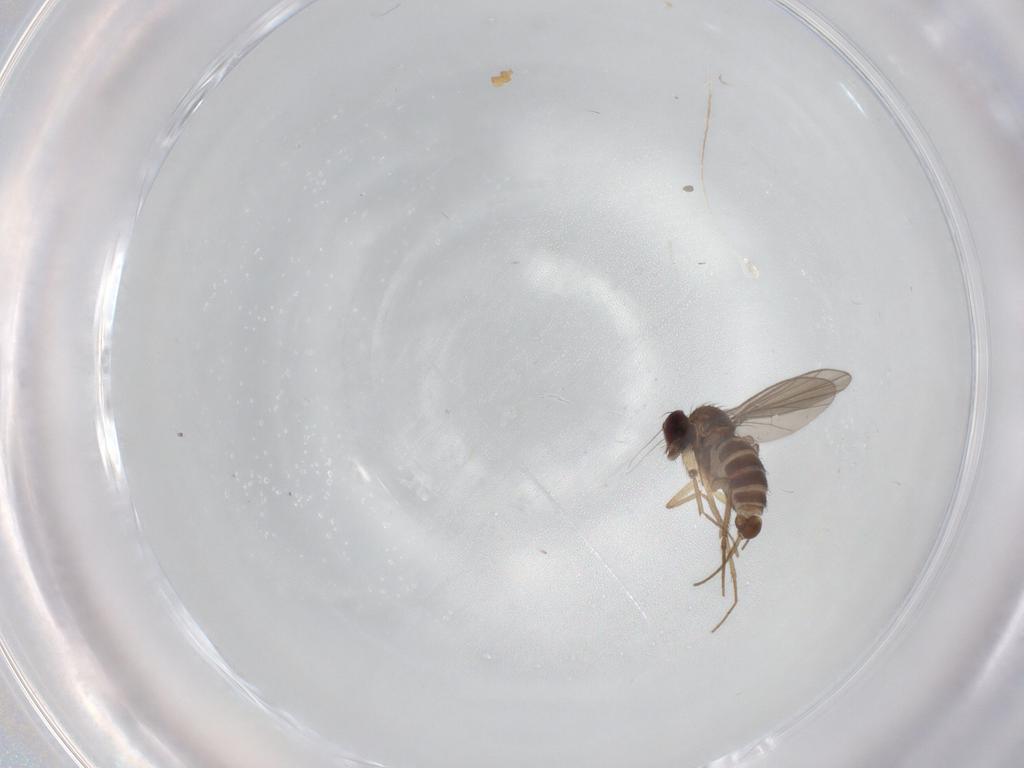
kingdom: Animalia
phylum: Arthropoda
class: Insecta
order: Diptera
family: Dolichopodidae
